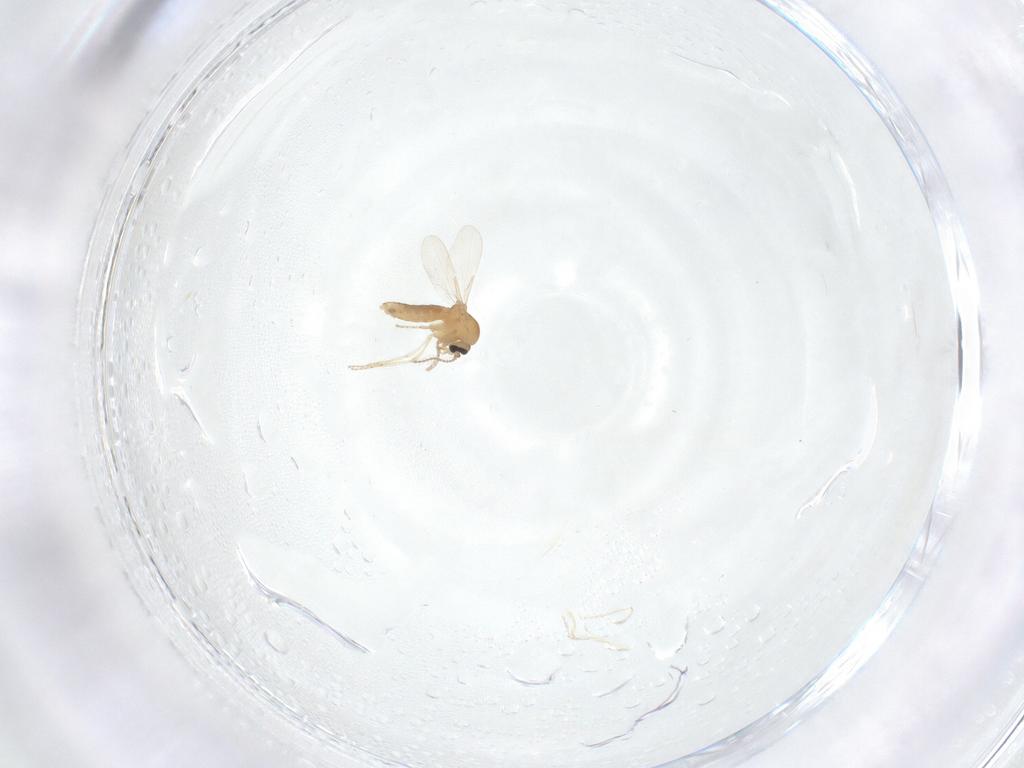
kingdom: Animalia
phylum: Arthropoda
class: Insecta
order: Diptera
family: Ceratopogonidae
